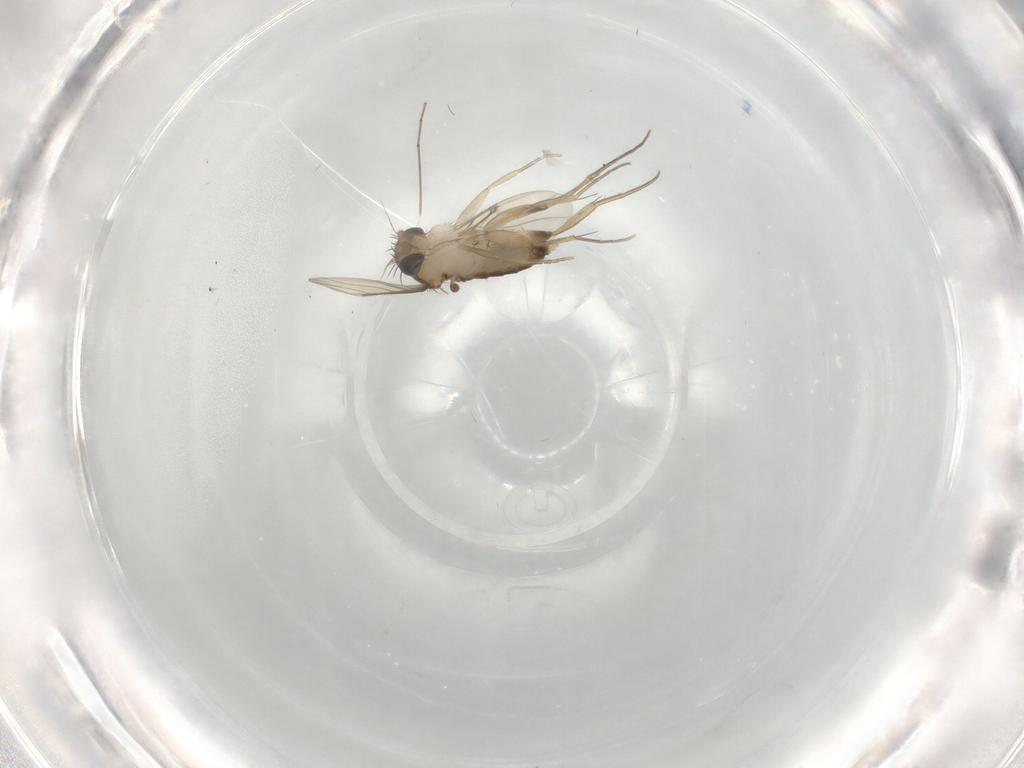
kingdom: Animalia
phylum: Arthropoda
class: Insecta
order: Diptera
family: Phoridae
